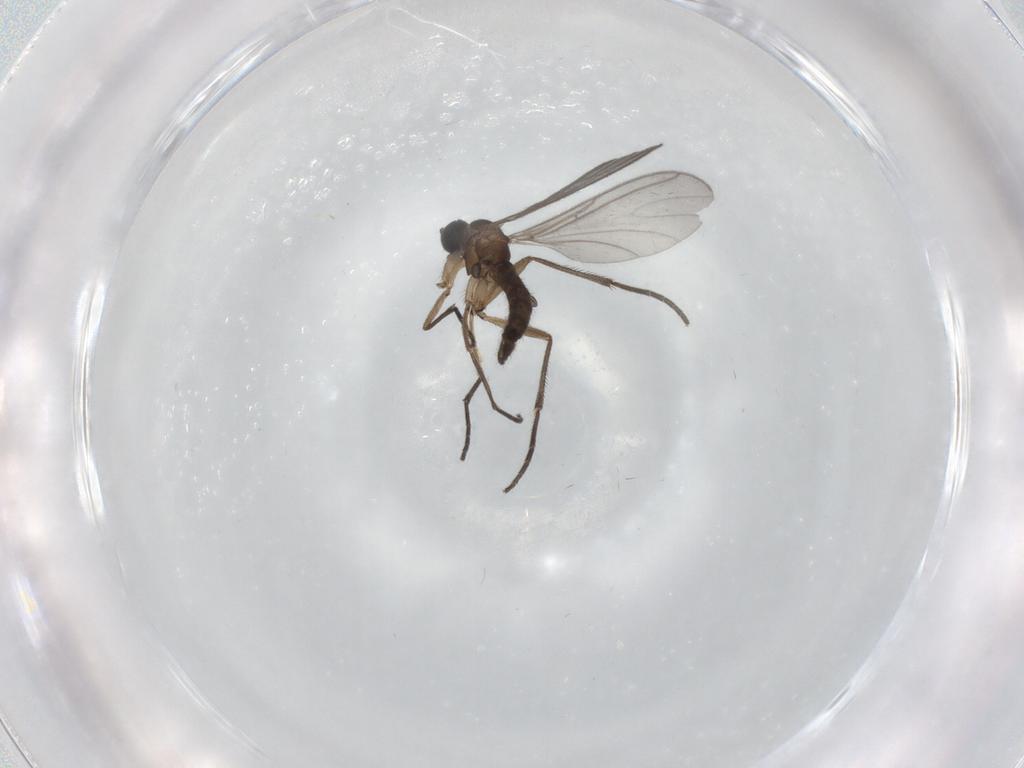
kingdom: Animalia
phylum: Arthropoda
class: Insecta
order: Diptera
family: Sciaridae
